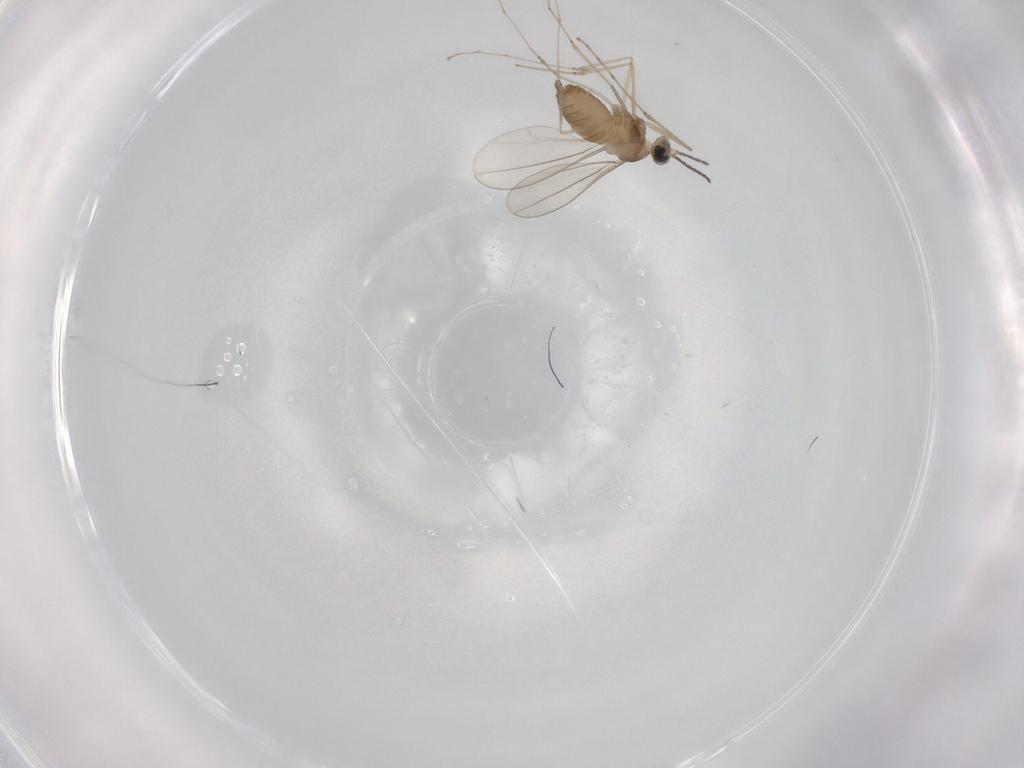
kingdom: Animalia
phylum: Arthropoda
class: Insecta
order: Diptera
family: Cecidomyiidae
